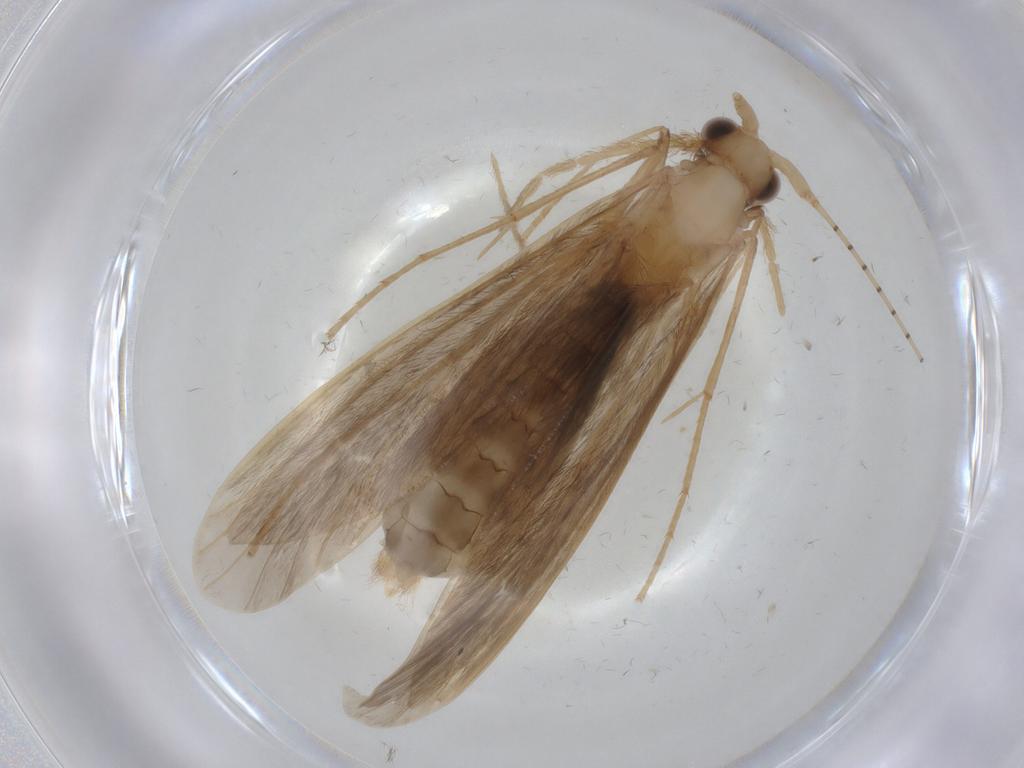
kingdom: Animalia
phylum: Arthropoda
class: Insecta
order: Trichoptera
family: Leptoceridae
